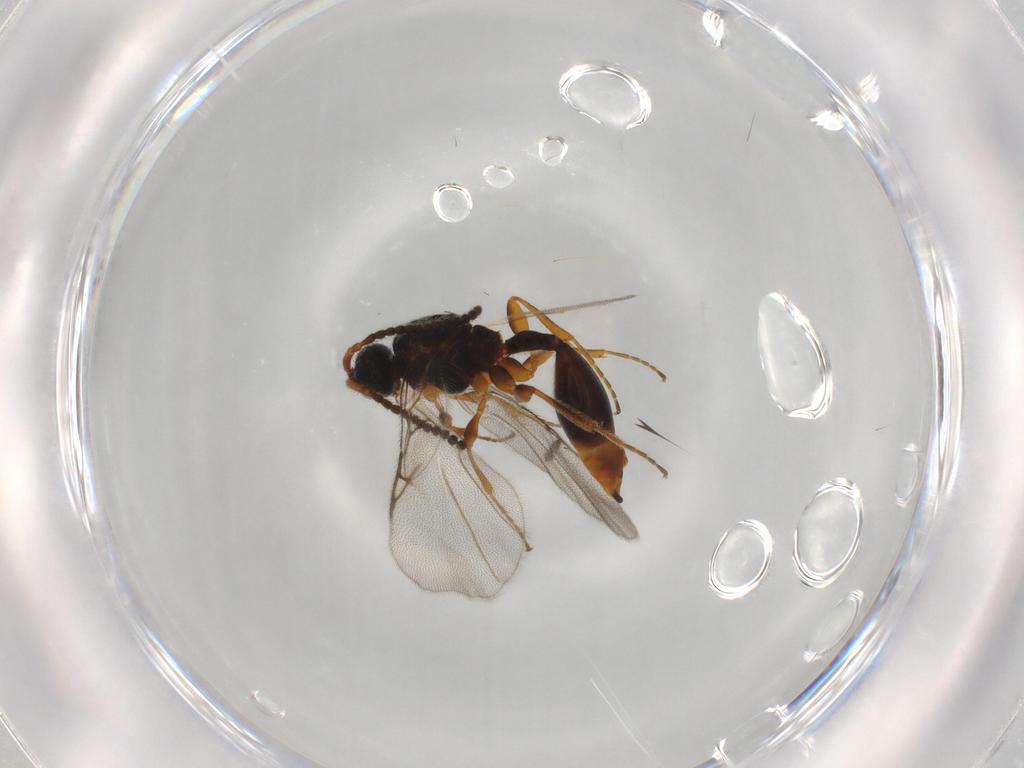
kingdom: Animalia
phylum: Arthropoda
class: Insecta
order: Hymenoptera
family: Diapriidae
